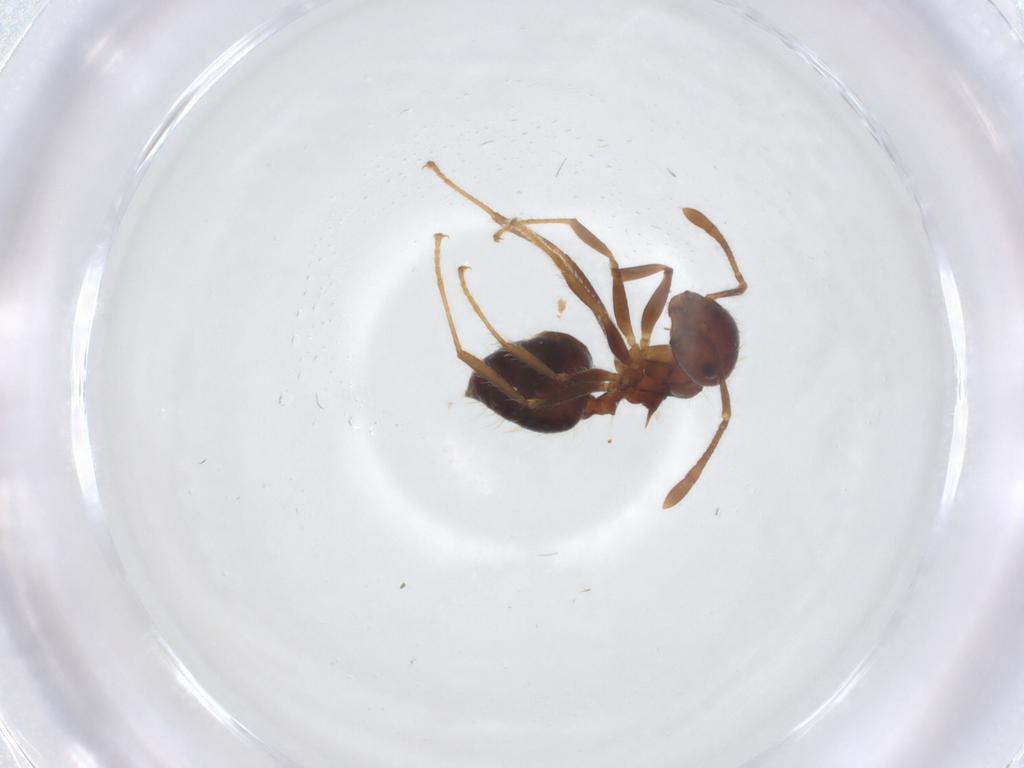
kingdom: Animalia
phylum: Arthropoda
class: Insecta
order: Hymenoptera
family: Formicidae
